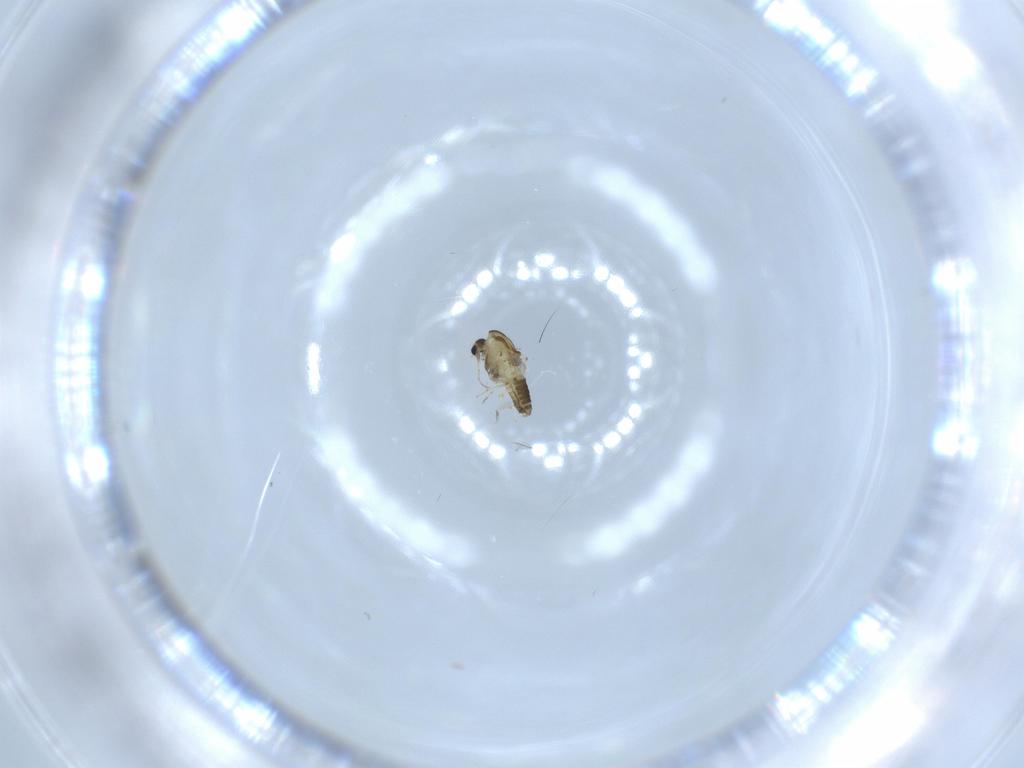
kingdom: Animalia
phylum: Arthropoda
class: Insecta
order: Diptera
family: Chironomidae
